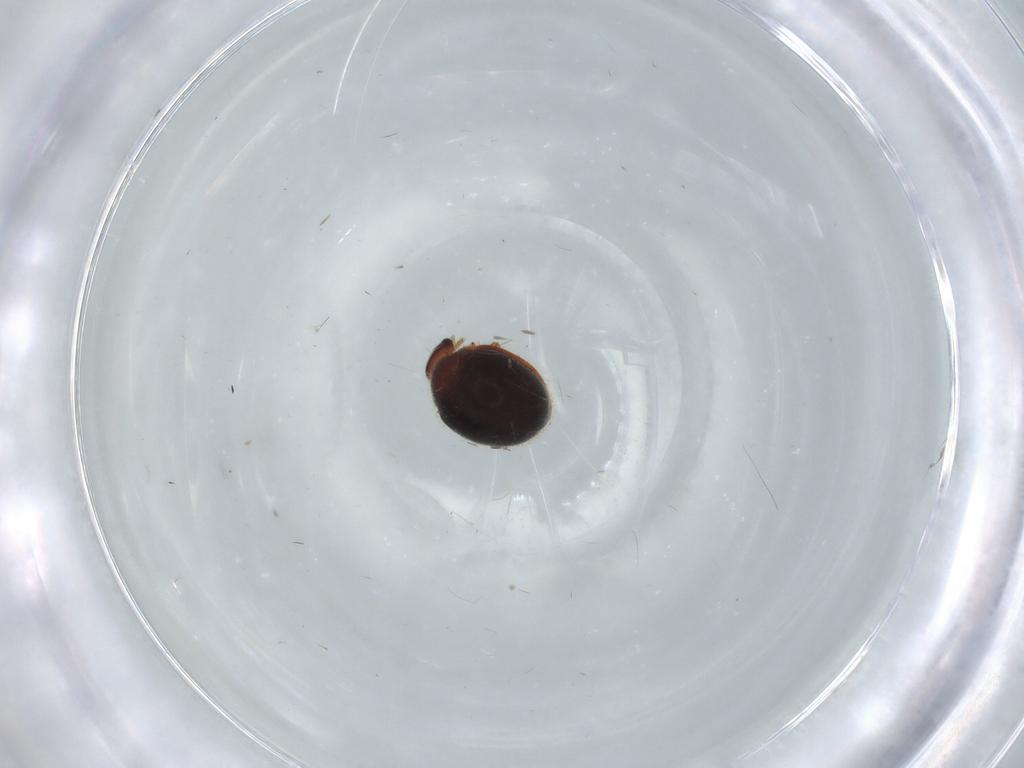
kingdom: Animalia
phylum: Arthropoda
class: Insecta
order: Coleoptera
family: Coccinellidae
